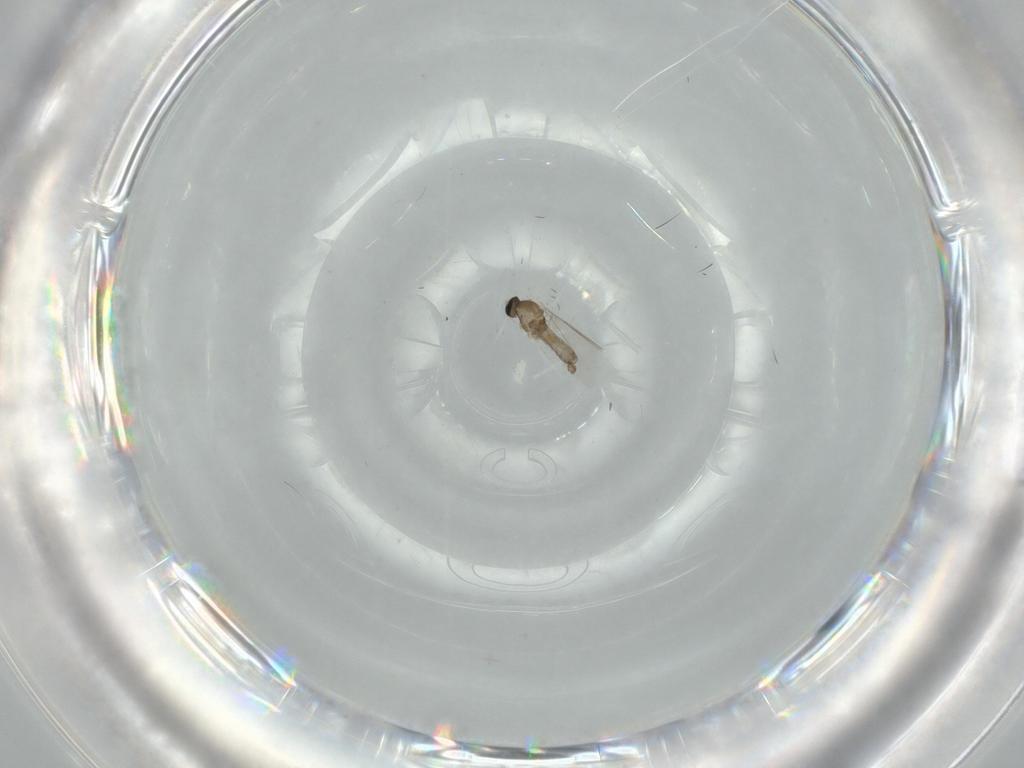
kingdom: Animalia
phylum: Arthropoda
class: Insecta
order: Diptera
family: Cecidomyiidae
